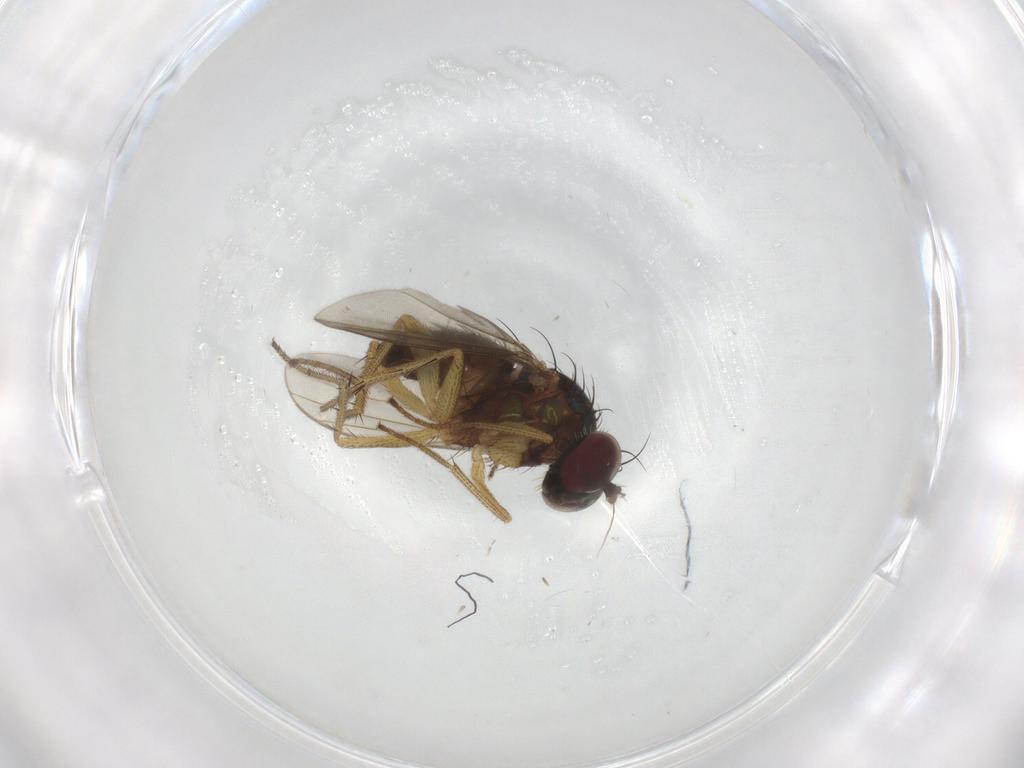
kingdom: Animalia
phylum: Arthropoda
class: Insecta
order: Diptera
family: Dolichopodidae
